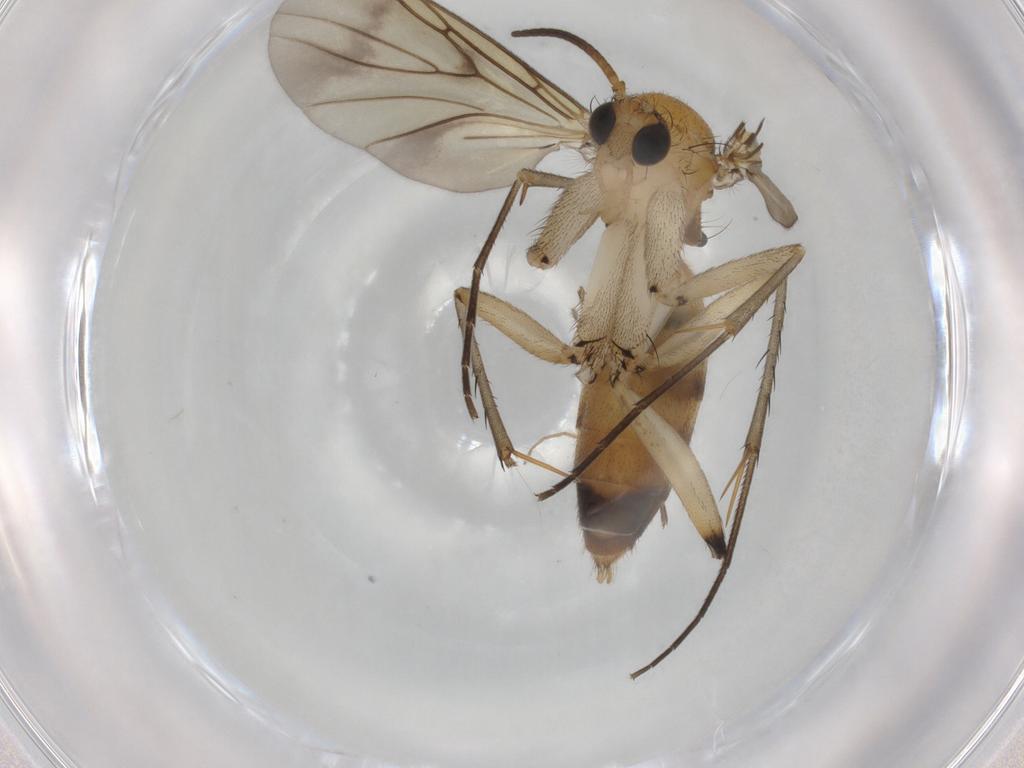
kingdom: Animalia
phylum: Arthropoda
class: Insecta
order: Diptera
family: Mycetophilidae
